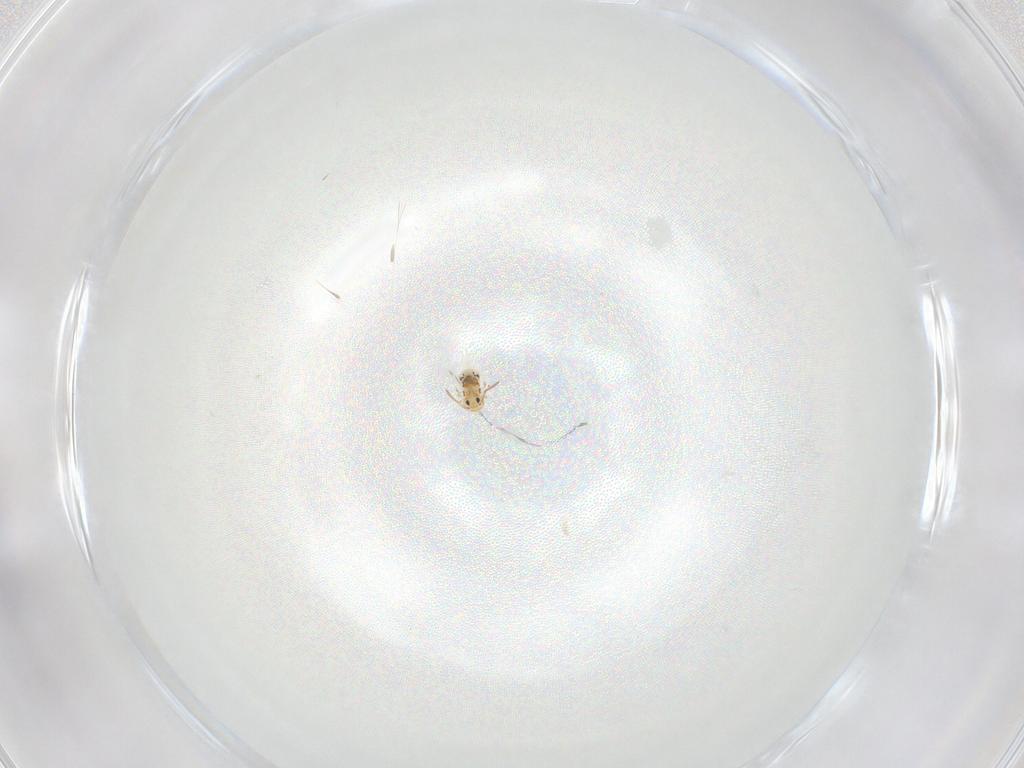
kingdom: Animalia
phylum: Arthropoda
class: Collembola
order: Symphypleona
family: Bourletiellidae
